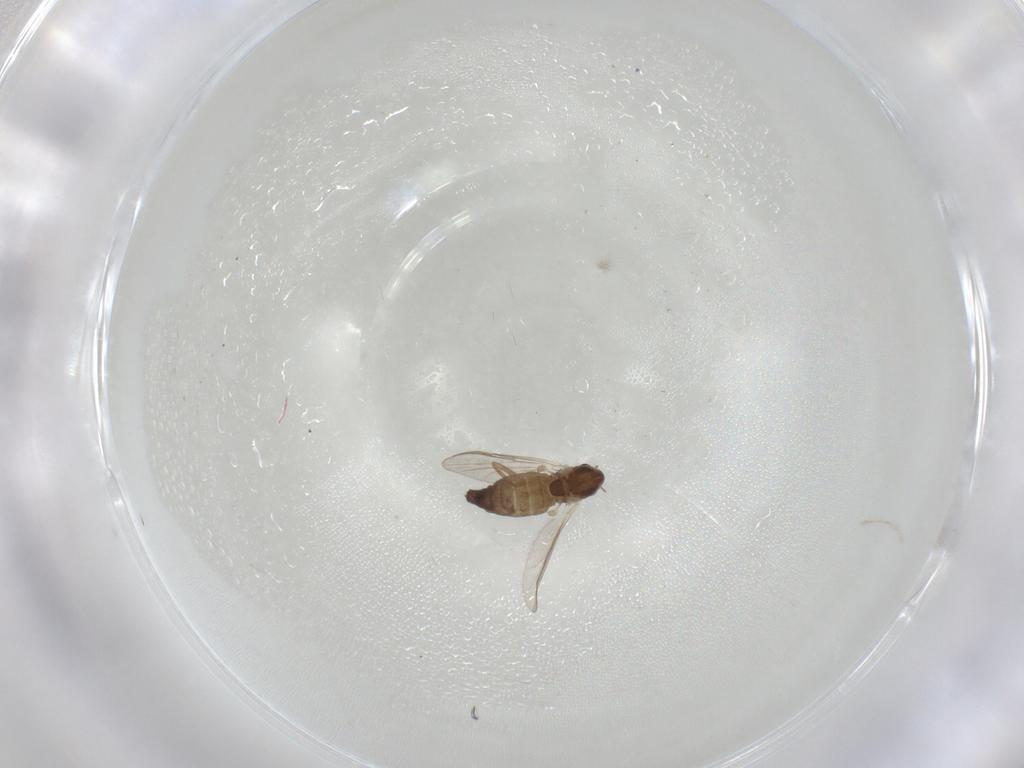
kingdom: Animalia
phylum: Arthropoda
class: Insecta
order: Diptera
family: Chironomidae
